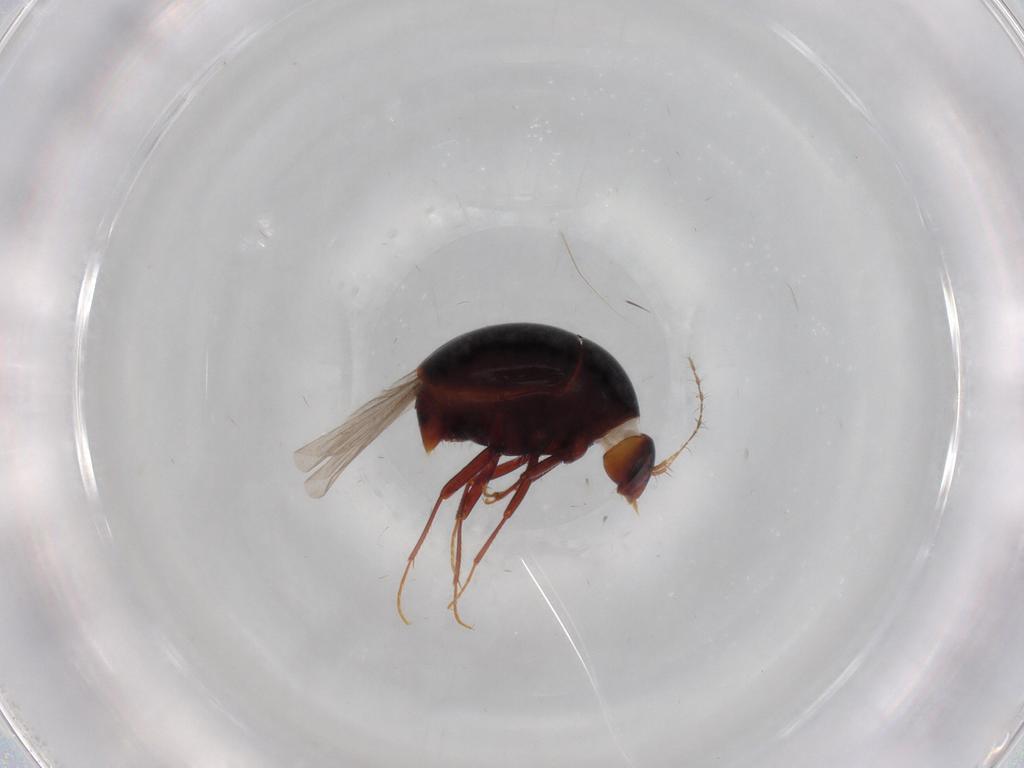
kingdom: Animalia
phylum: Arthropoda
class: Insecta
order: Coleoptera
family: Staphylinidae
